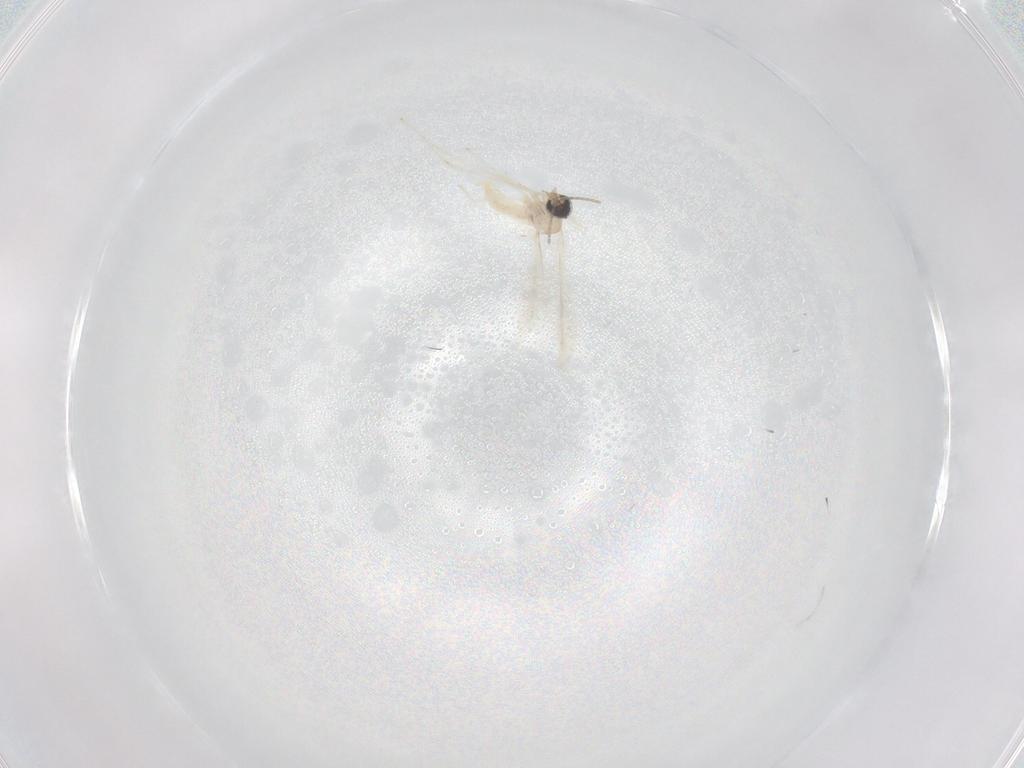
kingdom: Animalia
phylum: Arthropoda
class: Insecta
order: Diptera
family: Cecidomyiidae
